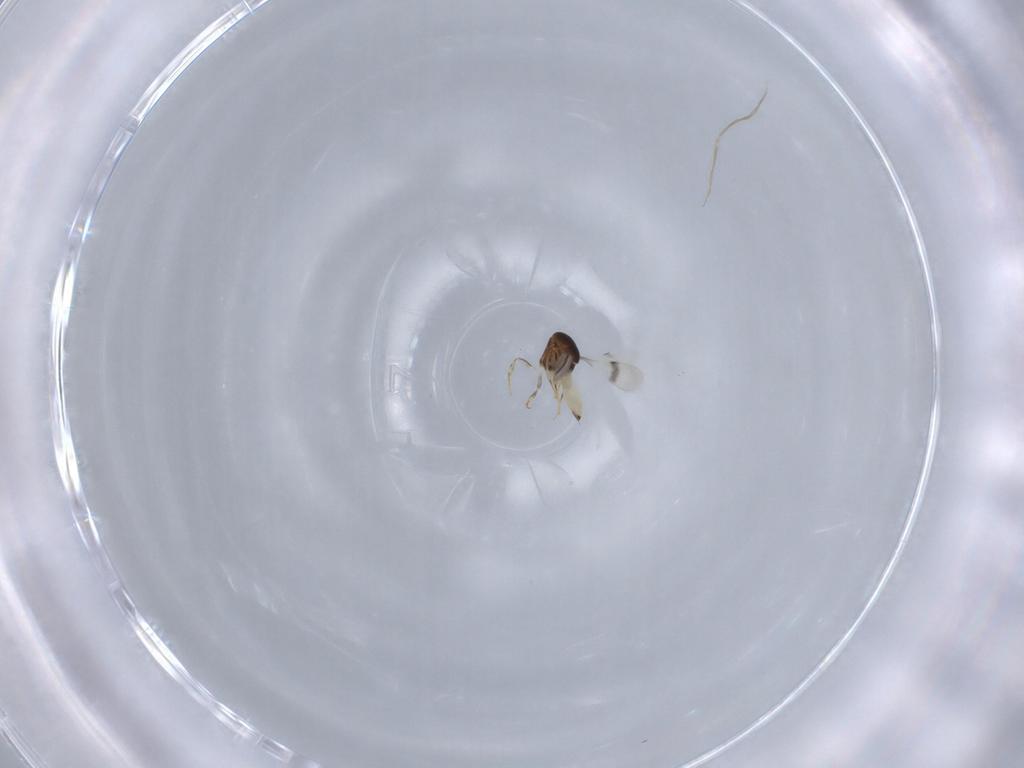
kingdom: Animalia
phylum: Arthropoda
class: Insecta
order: Hymenoptera
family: Scelionidae
